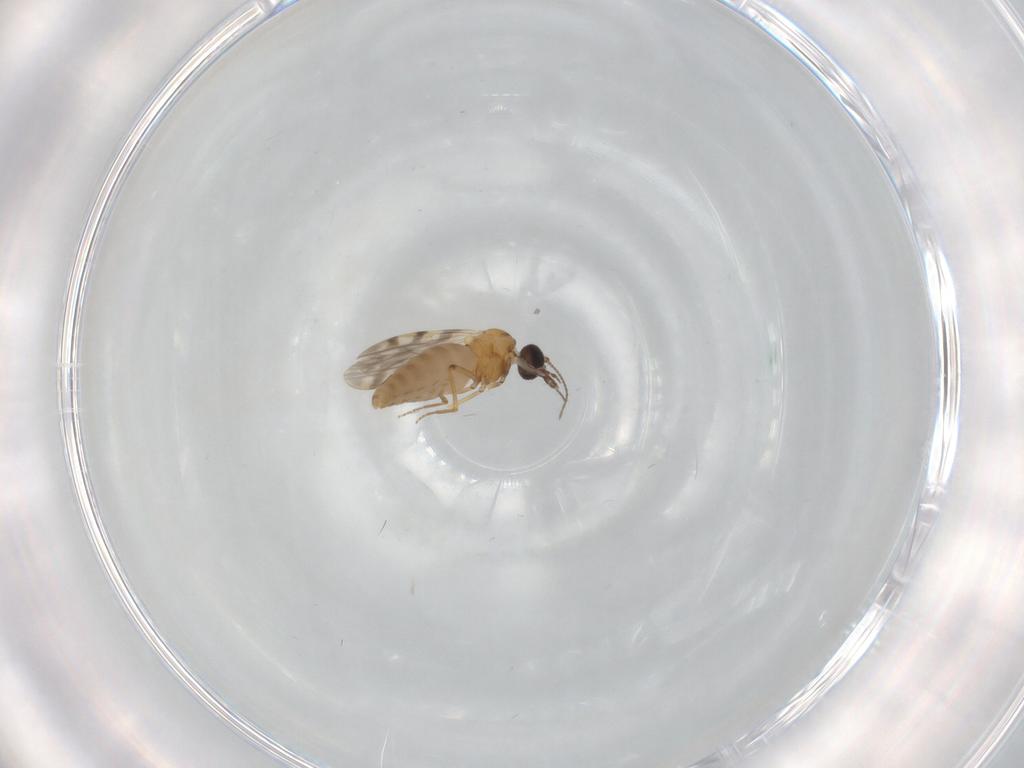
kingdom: Animalia
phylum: Arthropoda
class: Insecta
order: Diptera
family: Ceratopogonidae
